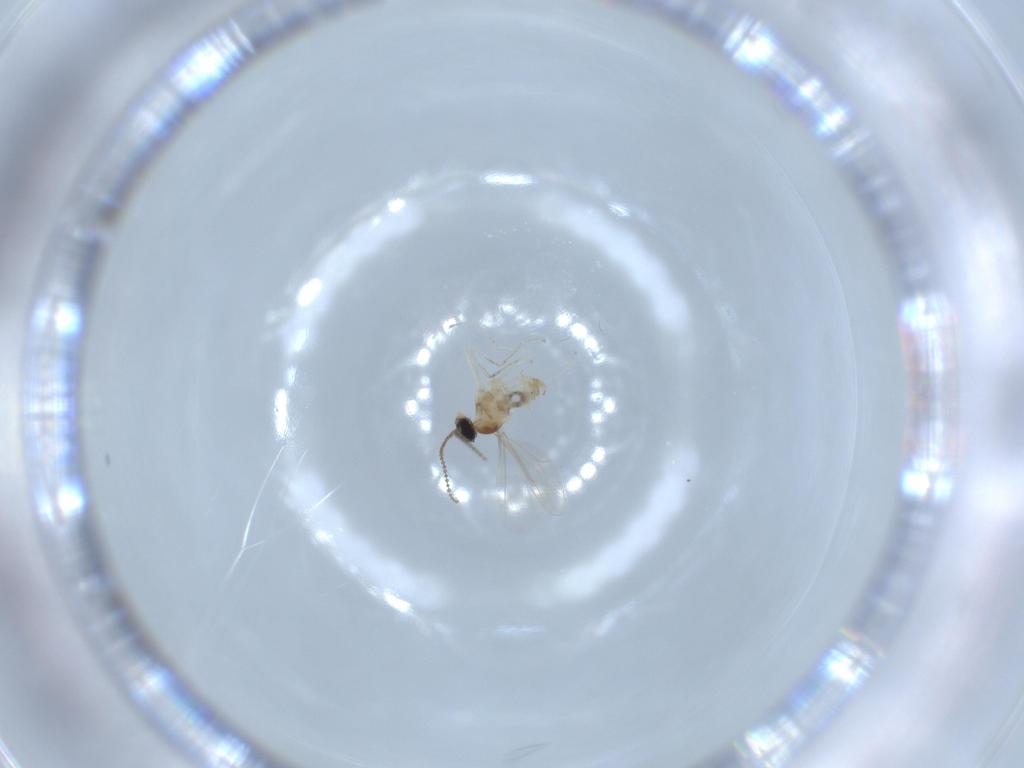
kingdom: Animalia
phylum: Arthropoda
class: Insecta
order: Diptera
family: Cecidomyiidae
